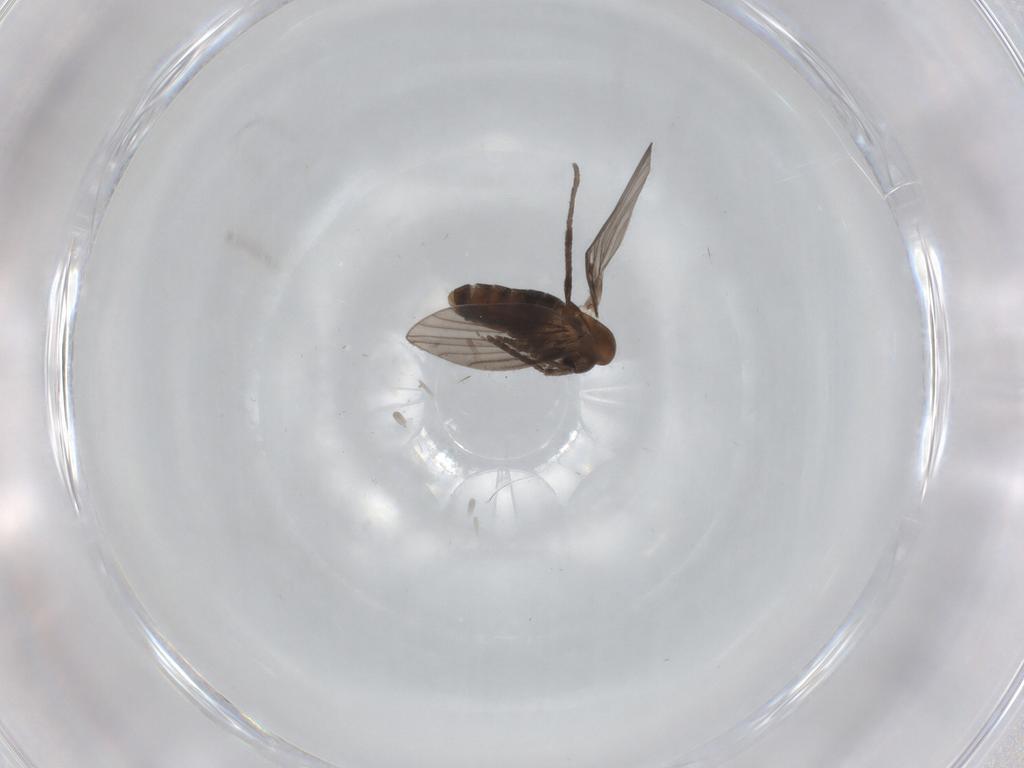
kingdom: Animalia
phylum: Arthropoda
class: Insecta
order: Diptera
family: Psychodidae
